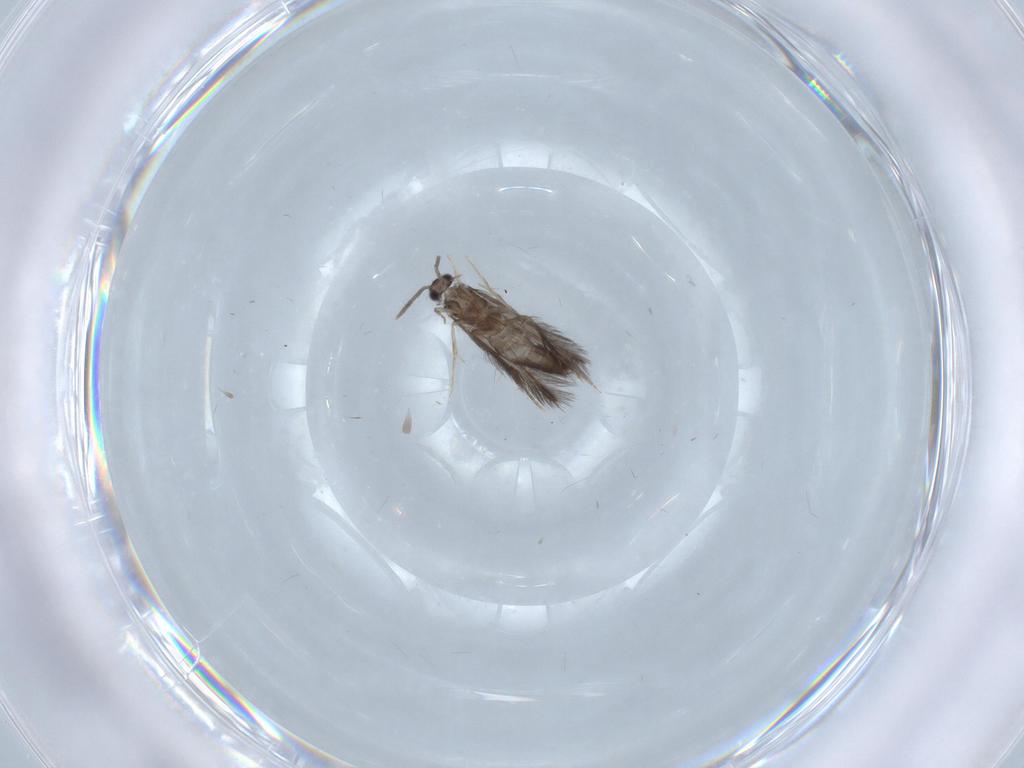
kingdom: Animalia
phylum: Arthropoda
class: Insecta
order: Trichoptera
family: Hydroptilidae
